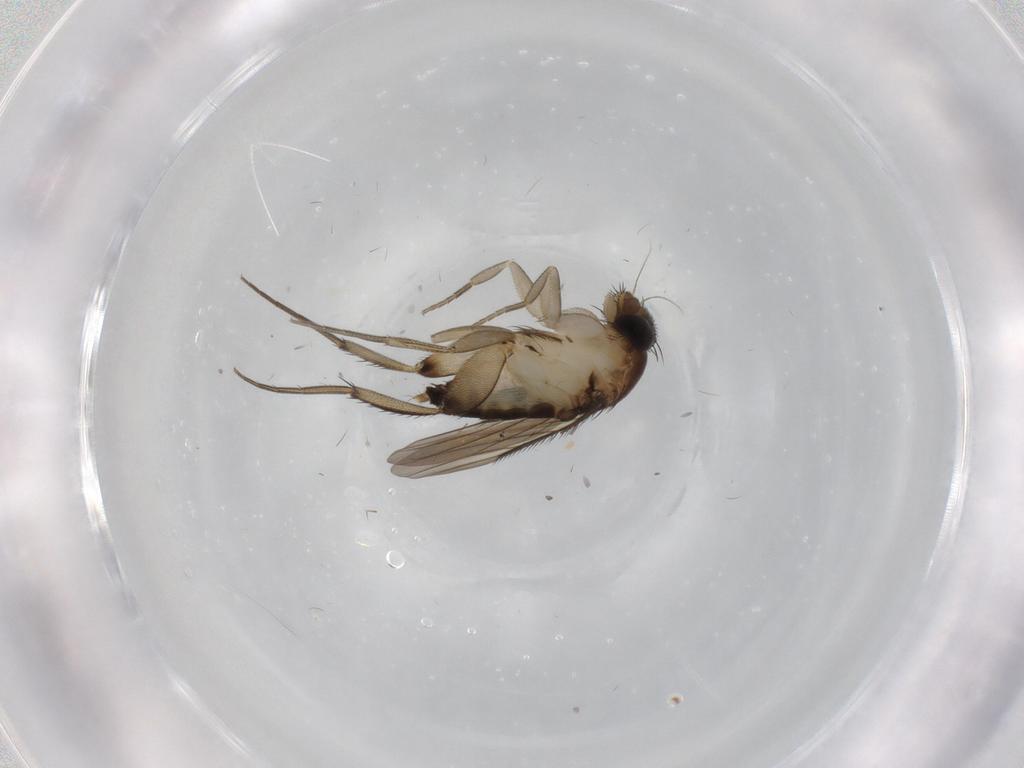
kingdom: Animalia
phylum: Arthropoda
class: Insecta
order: Diptera
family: Phoridae
